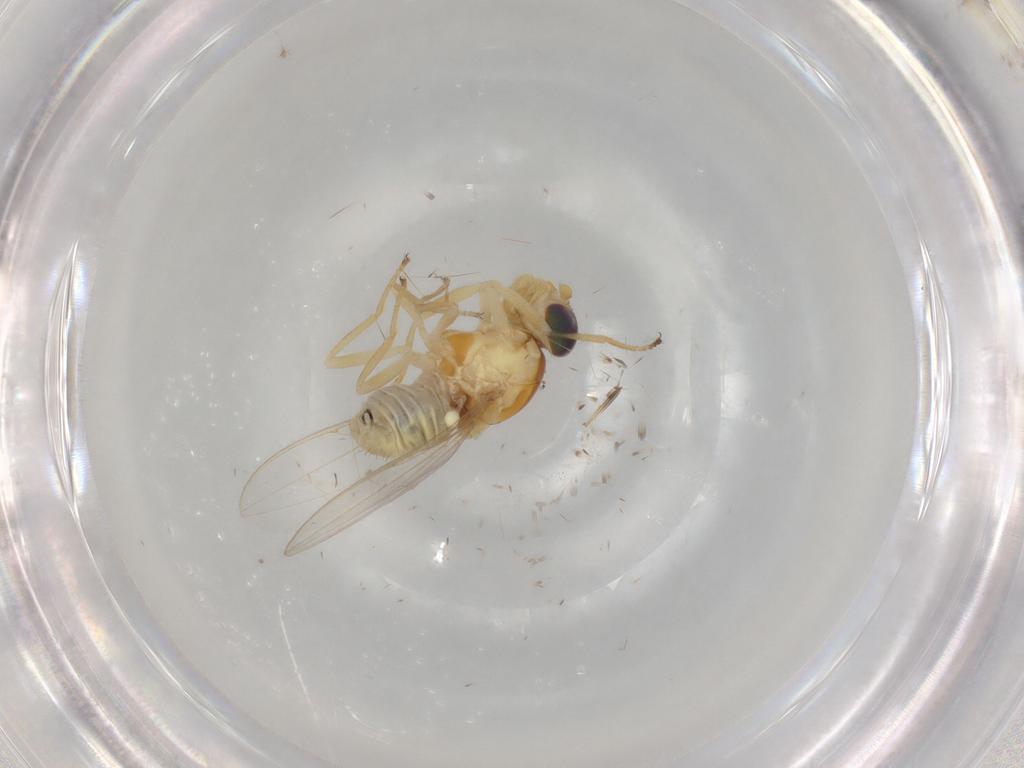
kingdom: Animalia
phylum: Arthropoda
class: Insecta
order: Diptera
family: Asteiidae
